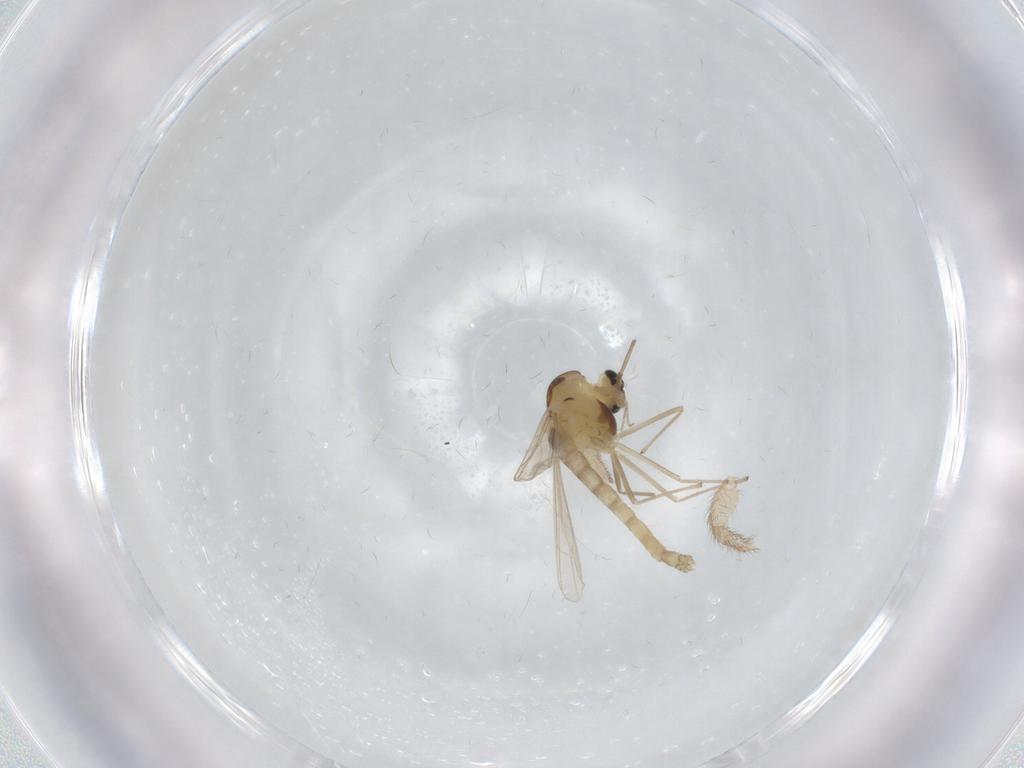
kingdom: Animalia
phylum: Arthropoda
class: Insecta
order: Diptera
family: Chironomidae
